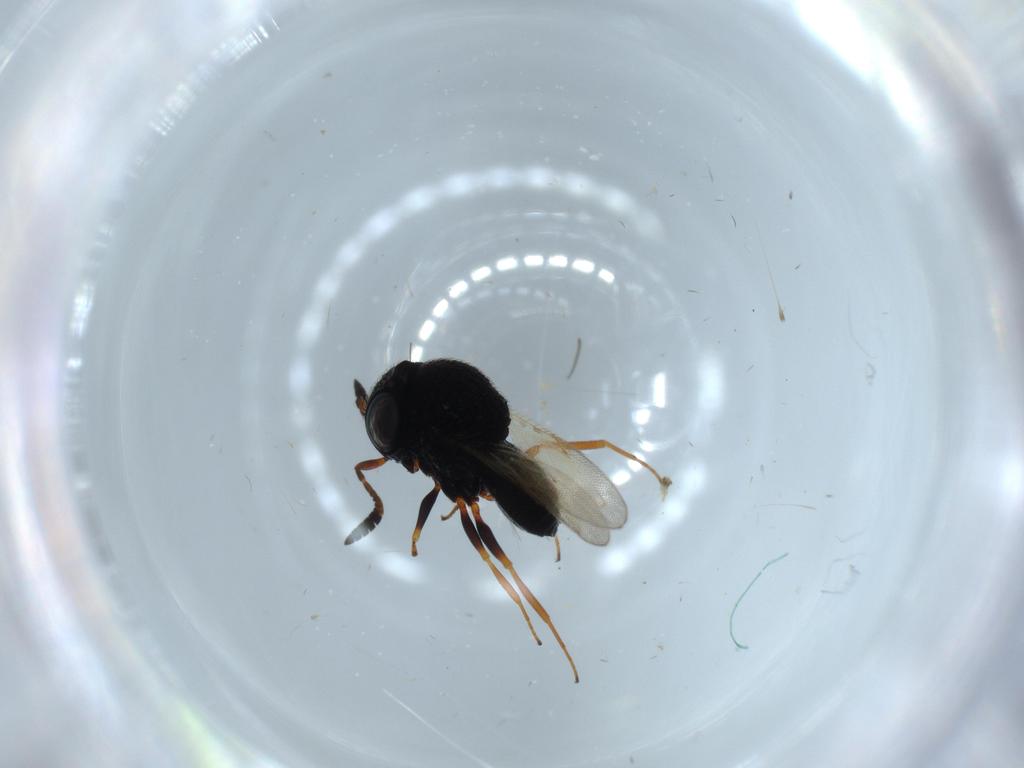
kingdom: Animalia
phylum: Arthropoda
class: Insecta
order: Hymenoptera
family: Scelionidae
